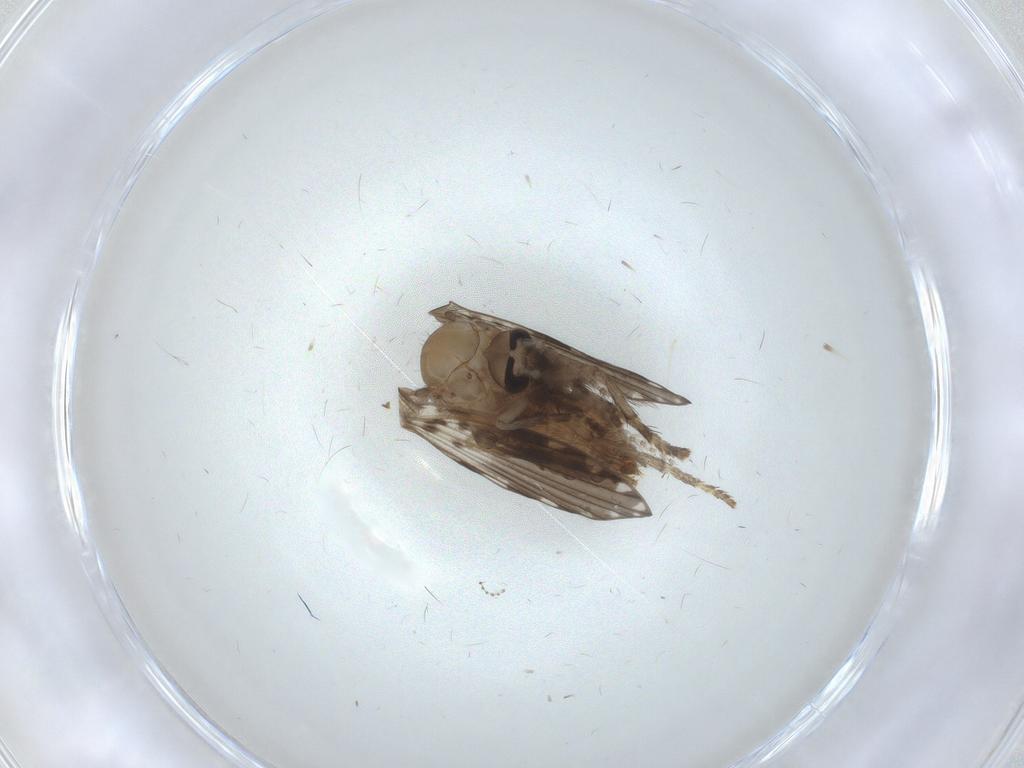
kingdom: Animalia
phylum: Arthropoda
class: Insecta
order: Diptera
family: Psychodidae
